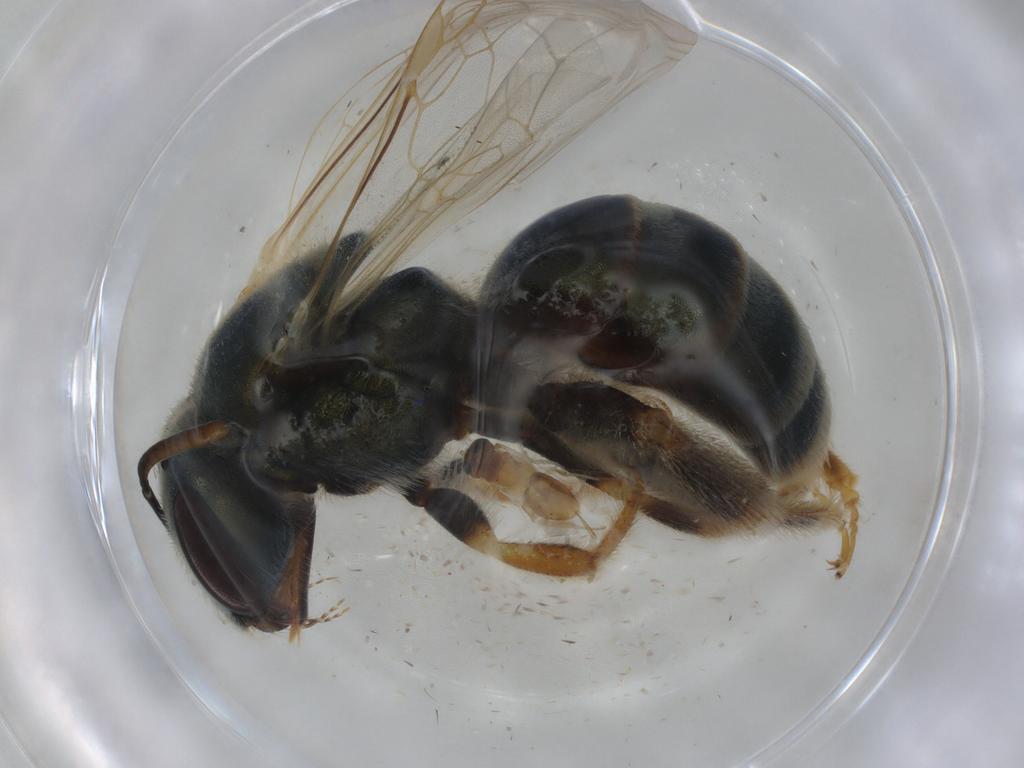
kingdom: Animalia
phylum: Arthropoda
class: Insecta
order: Hymenoptera
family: Halictidae
